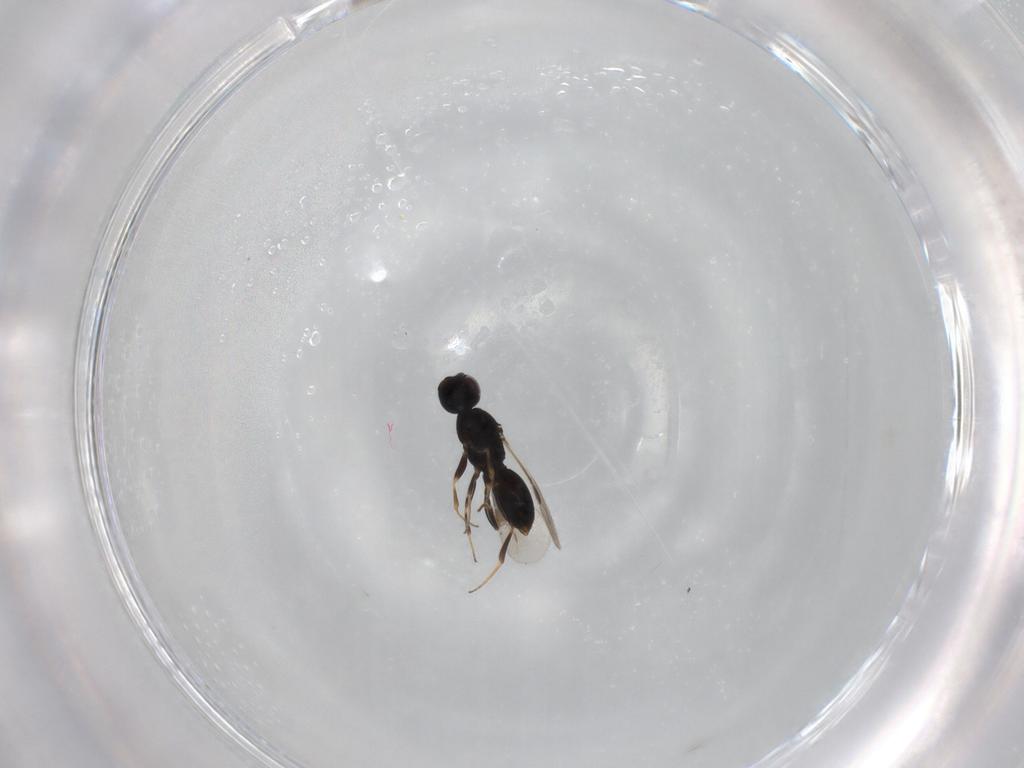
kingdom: Animalia
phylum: Arthropoda
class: Insecta
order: Hymenoptera
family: Megaspilidae
